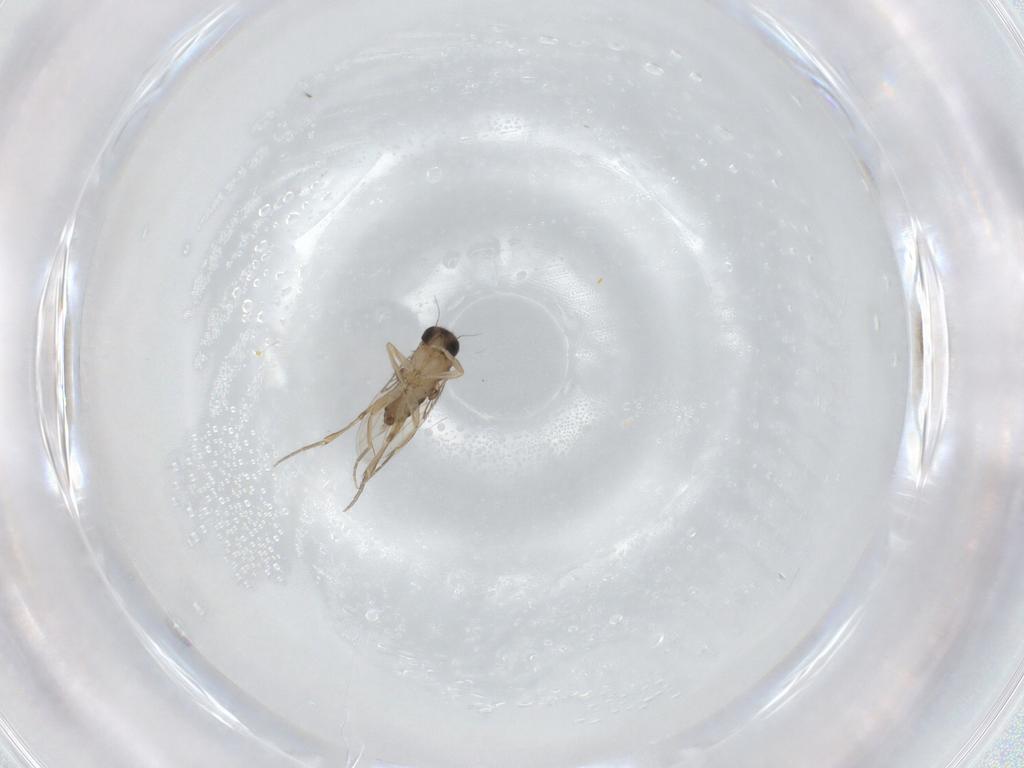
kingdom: Animalia
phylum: Arthropoda
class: Insecta
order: Diptera
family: Phoridae
